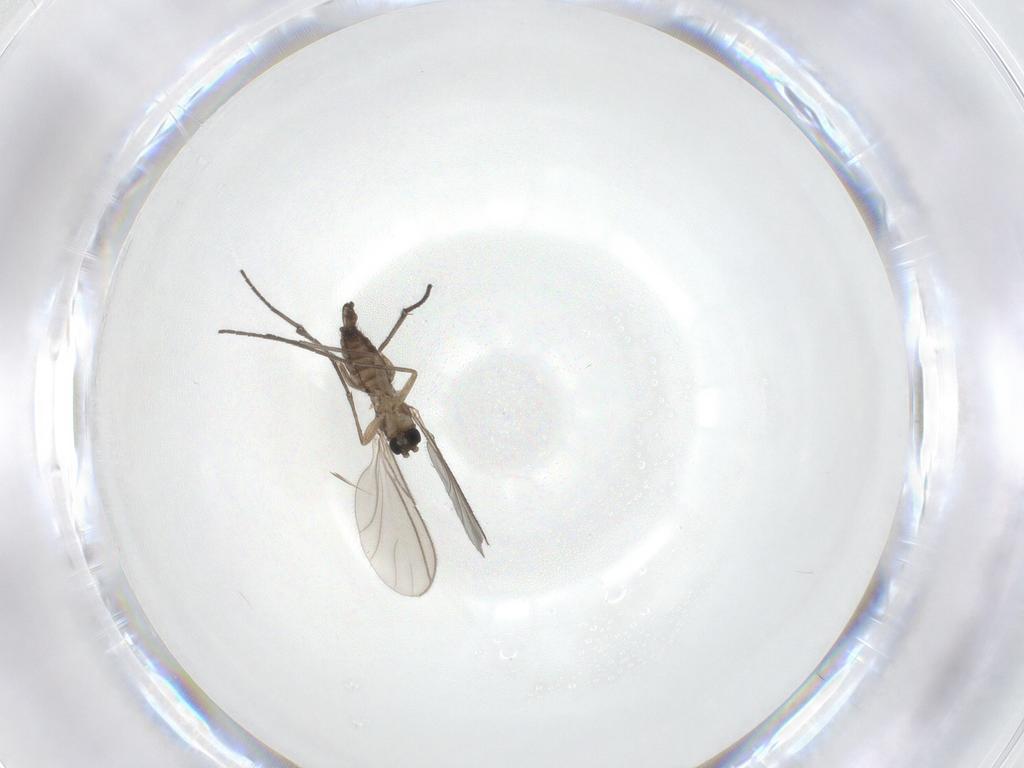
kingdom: Animalia
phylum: Arthropoda
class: Insecta
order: Diptera
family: Sciaridae
